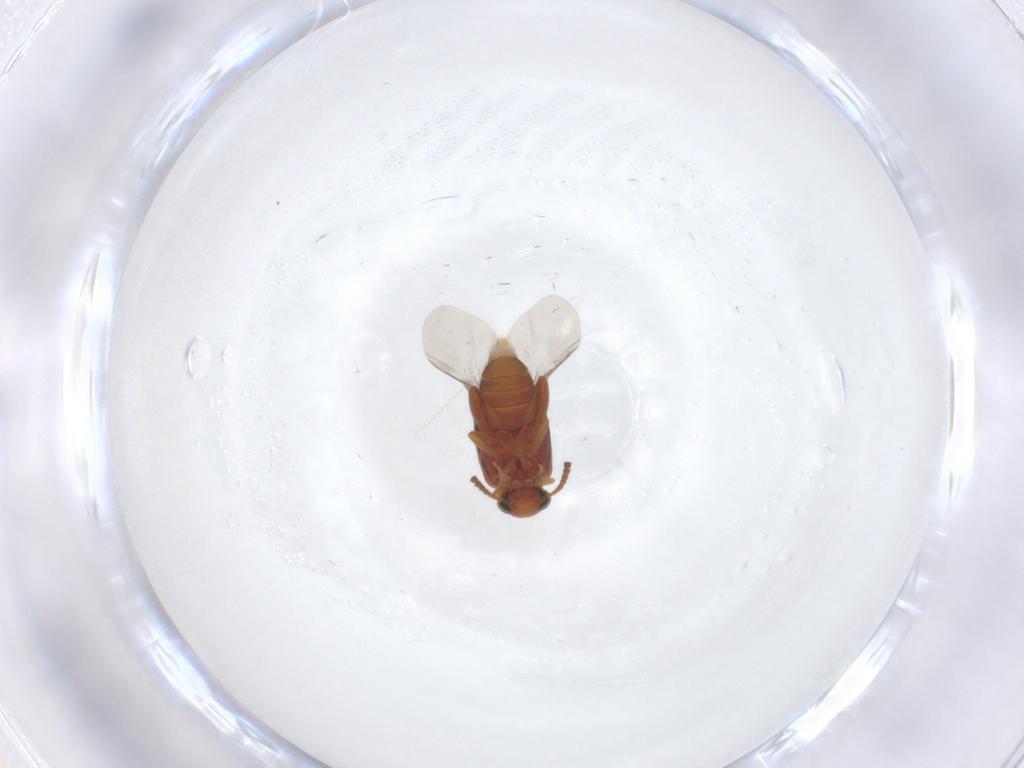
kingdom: Animalia
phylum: Arthropoda
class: Insecta
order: Coleoptera
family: Aderidae
